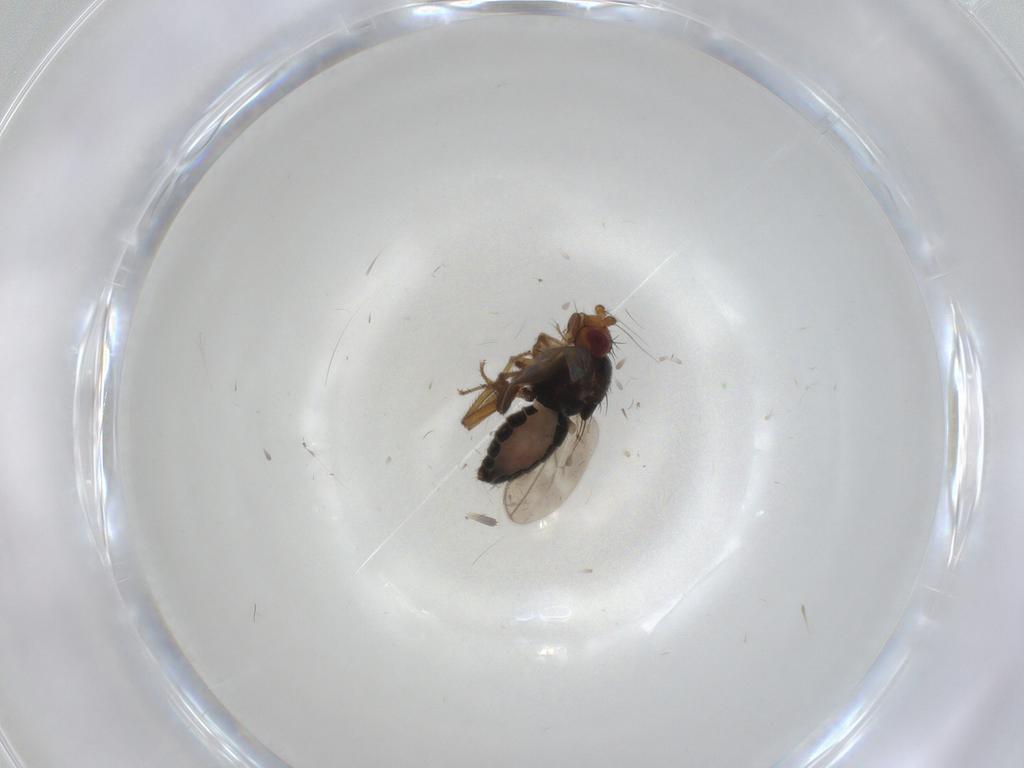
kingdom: Animalia
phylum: Arthropoda
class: Insecta
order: Diptera
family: Sphaeroceridae
